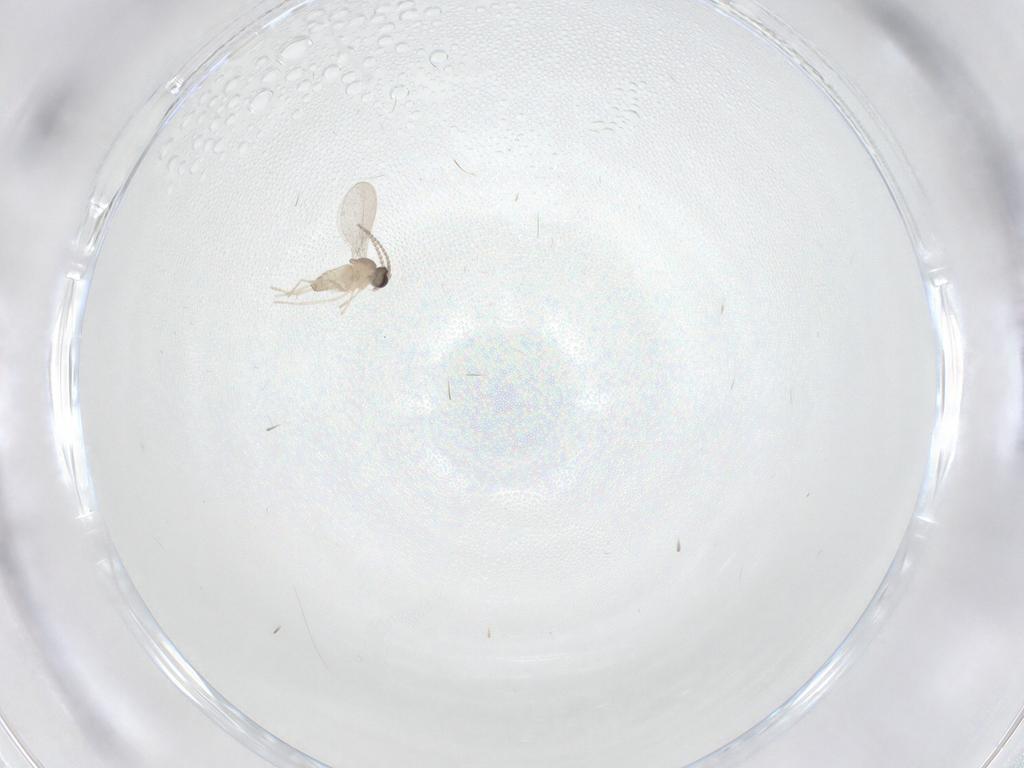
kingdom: Animalia
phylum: Arthropoda
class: Insecta
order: Diptera
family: Cecidomyiidae
